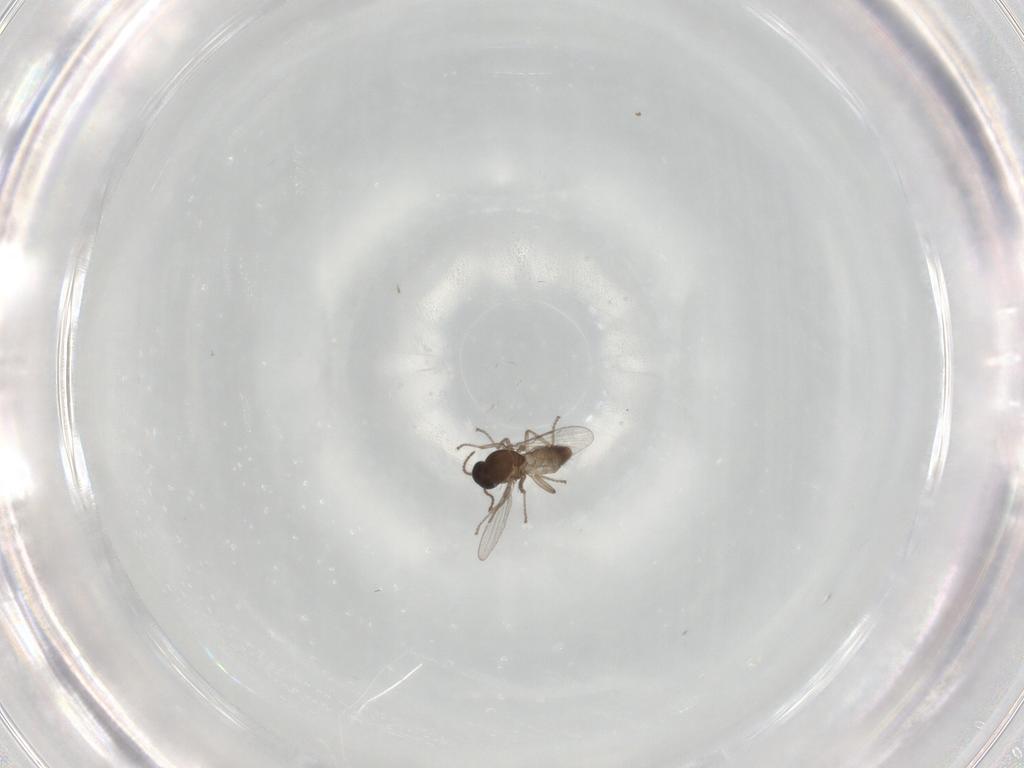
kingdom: Animalia
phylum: Arthropoda
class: Insecta
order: Diptera
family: Ceratopogonidae
